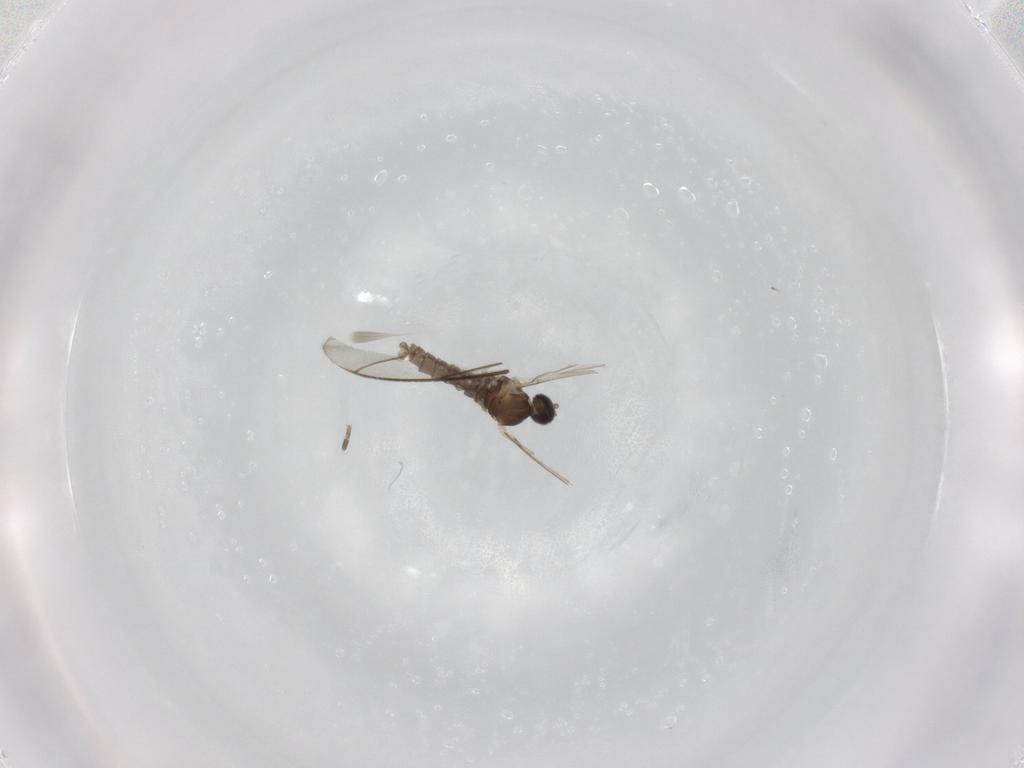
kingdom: Animalia
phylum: Arthropoda
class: Insecta
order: Diptera
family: Cecidomyiidae
